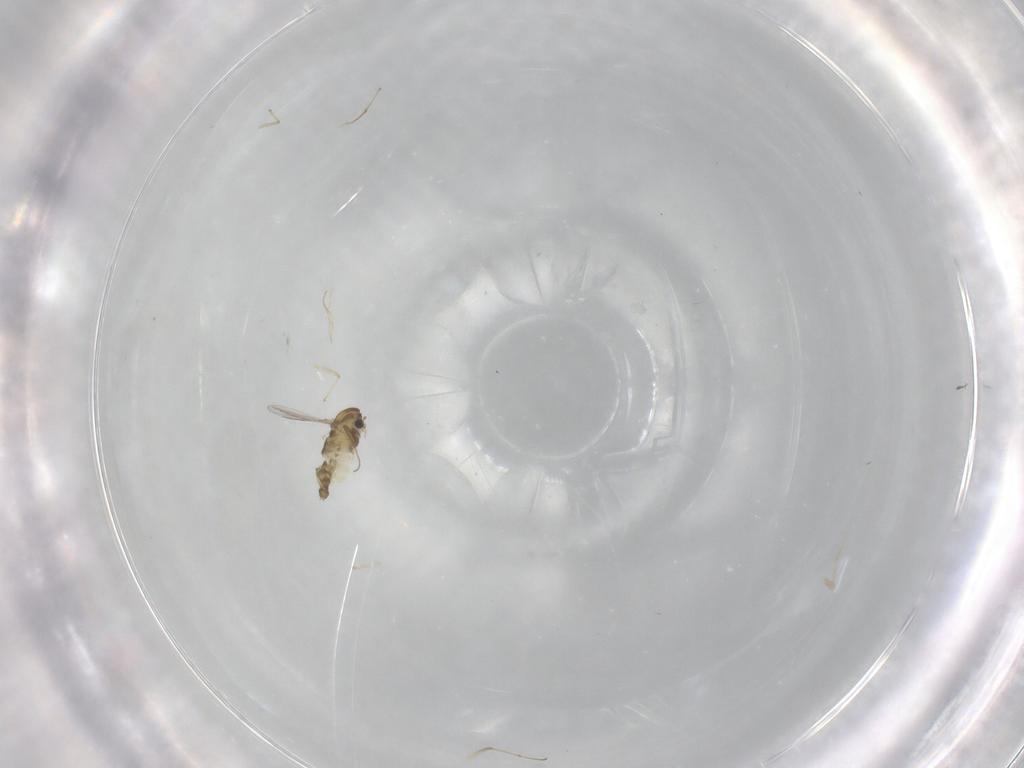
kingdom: Animalia
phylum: Arthropoda
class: Insecta
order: Diptera
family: Chironomidae
